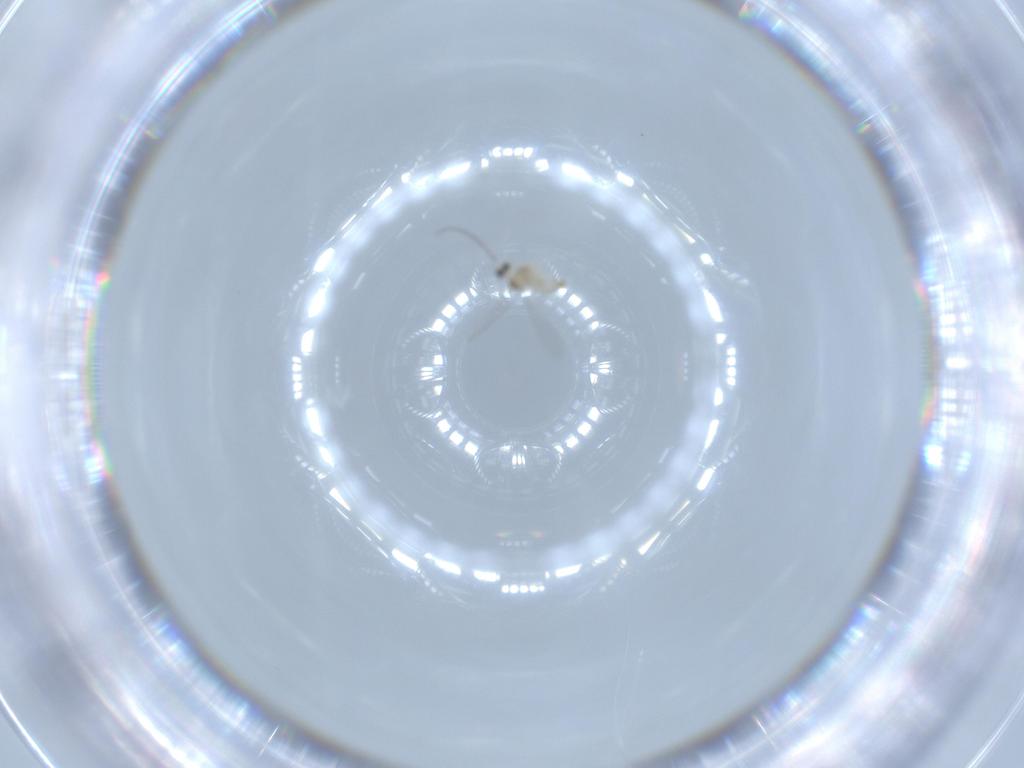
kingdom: Animalia
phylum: Arthropoda
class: Insecta
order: Diptera
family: Cecidomyiidae
